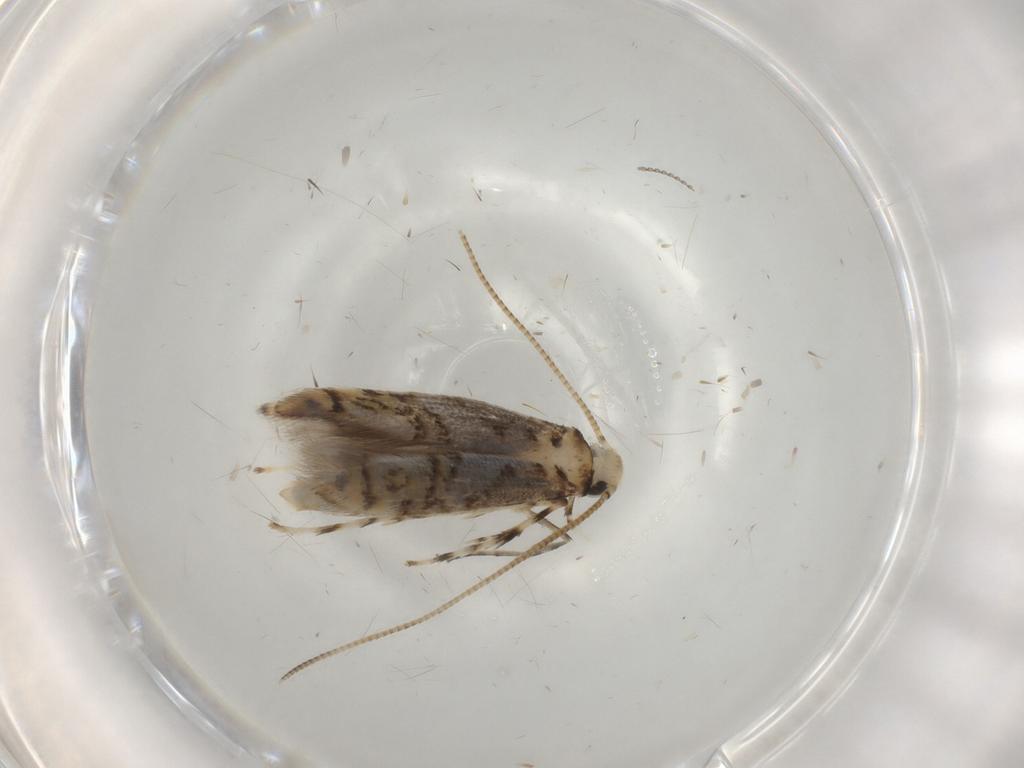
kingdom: Animalia
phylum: Arthropoda
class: Insecta
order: Lepidoptera
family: Gracillariidae
